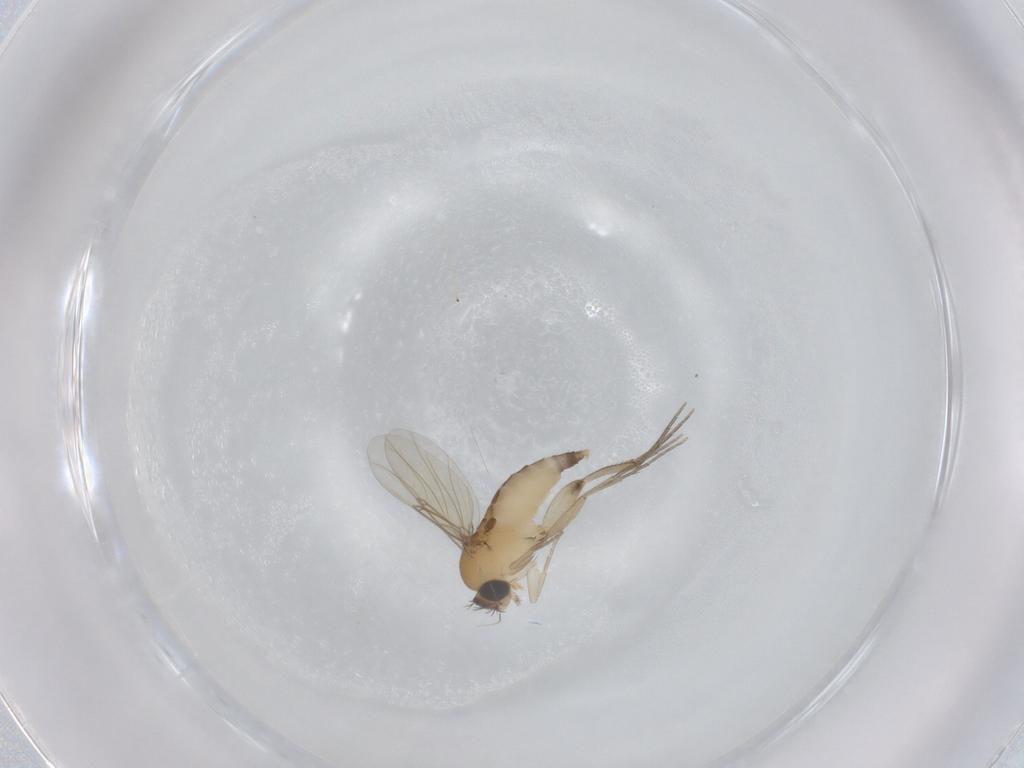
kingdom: Animalia
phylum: Arthropoda
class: Insecta
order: Diptera
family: Phoridae
